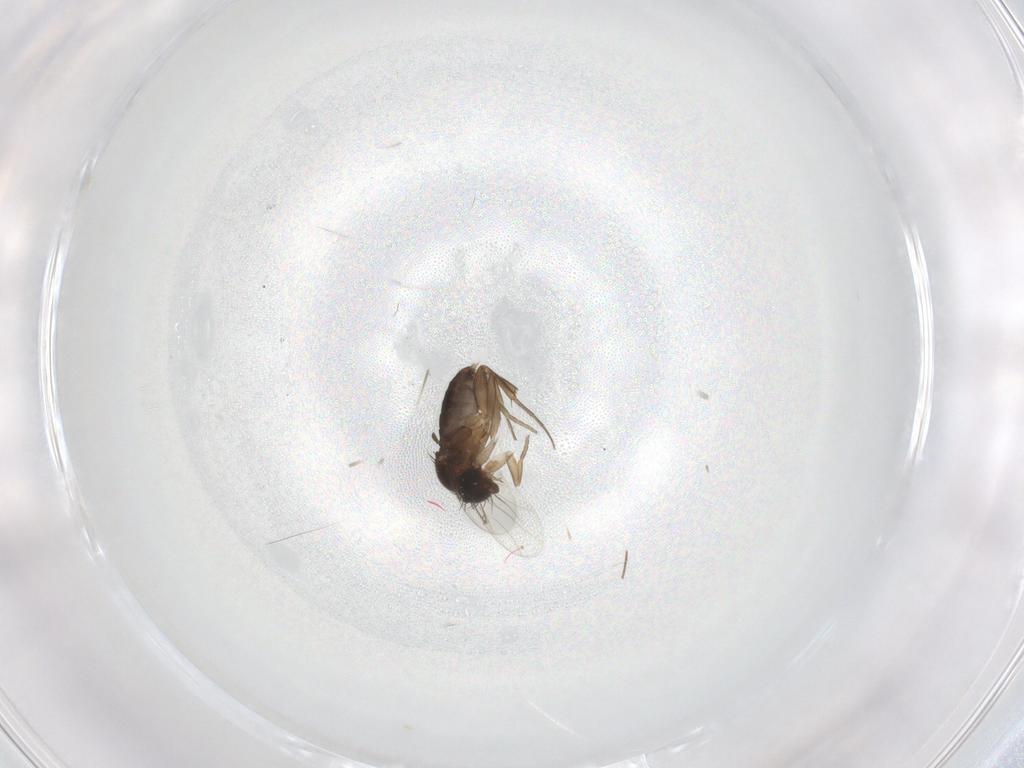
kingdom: Animalia
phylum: Arthropoda
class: Insecta
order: Diptera
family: Phoridae
